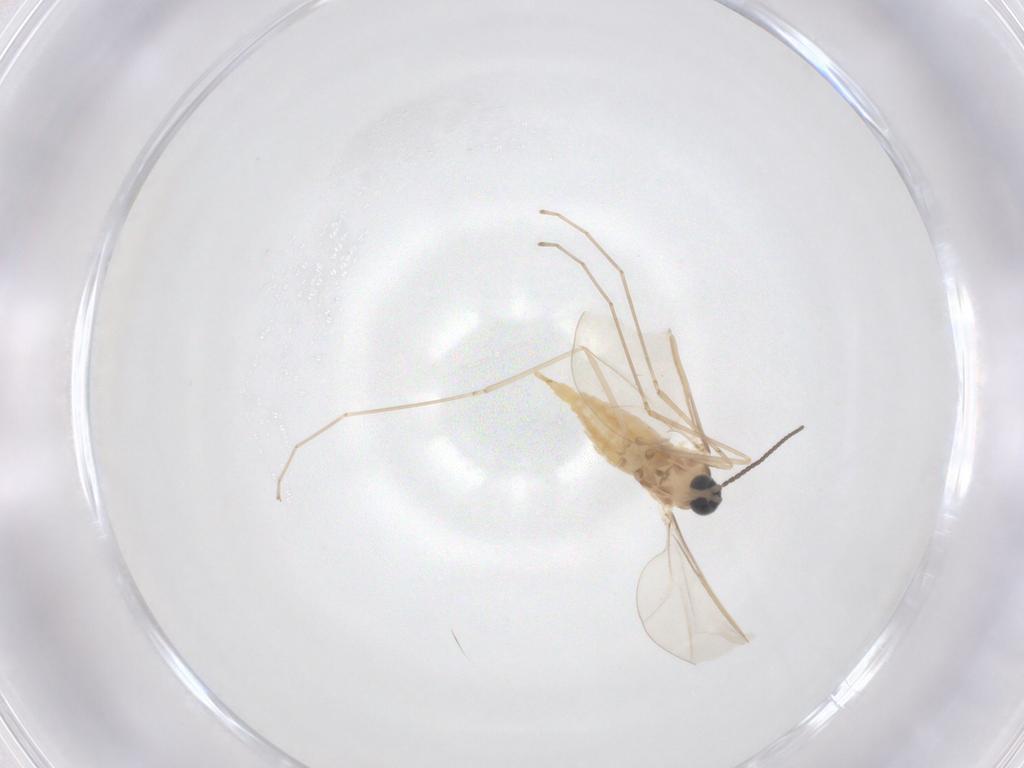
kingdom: Animalia
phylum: Arthropoda
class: Insecta
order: Diptera
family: Cecidomyiidae
